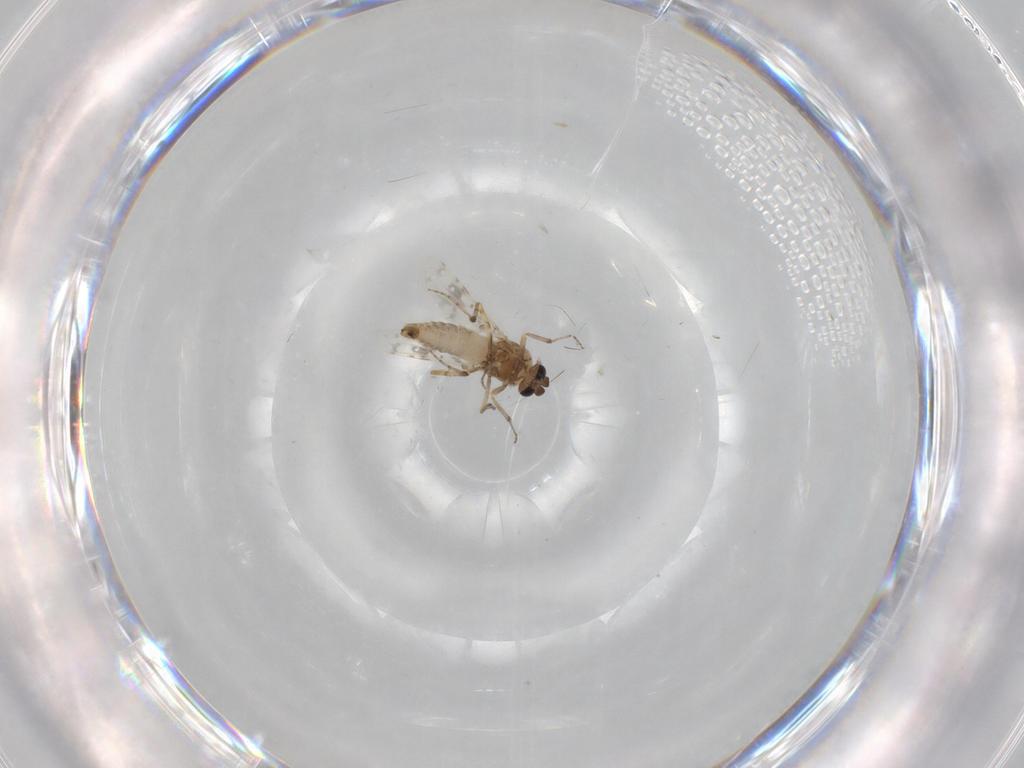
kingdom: Animalia
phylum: Arthropoda
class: Insecta
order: Diptera
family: Ceratopogonidae
